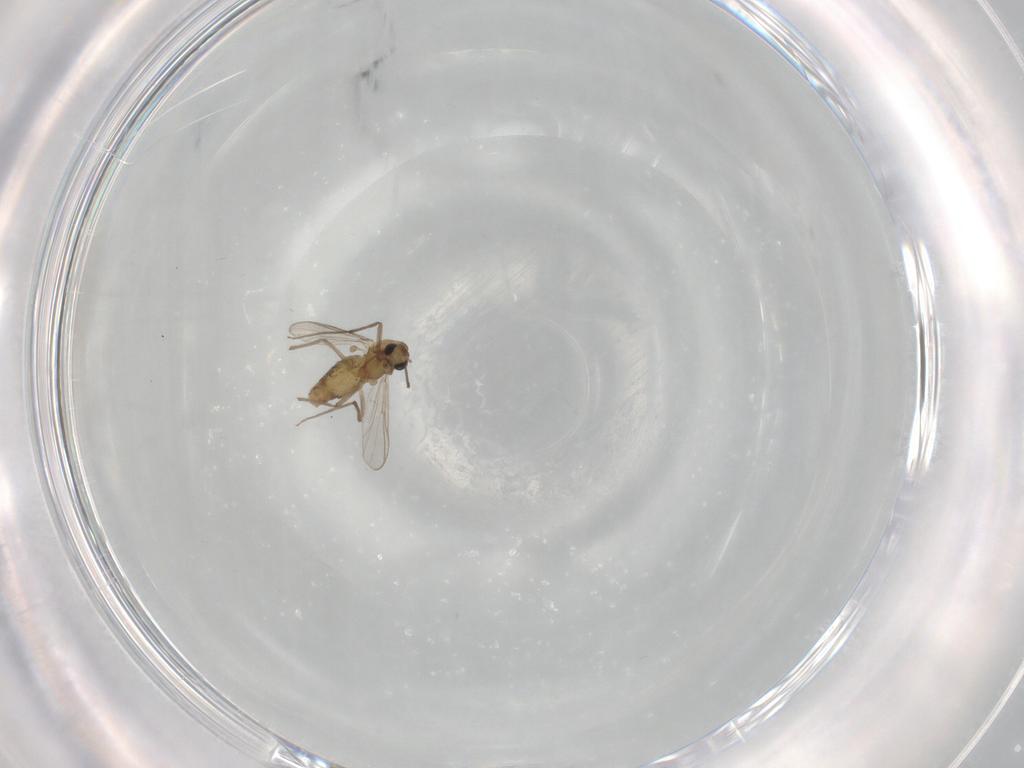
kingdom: Animalia
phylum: Arthropoda
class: Insecta
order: Diptera
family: Chironomidae
